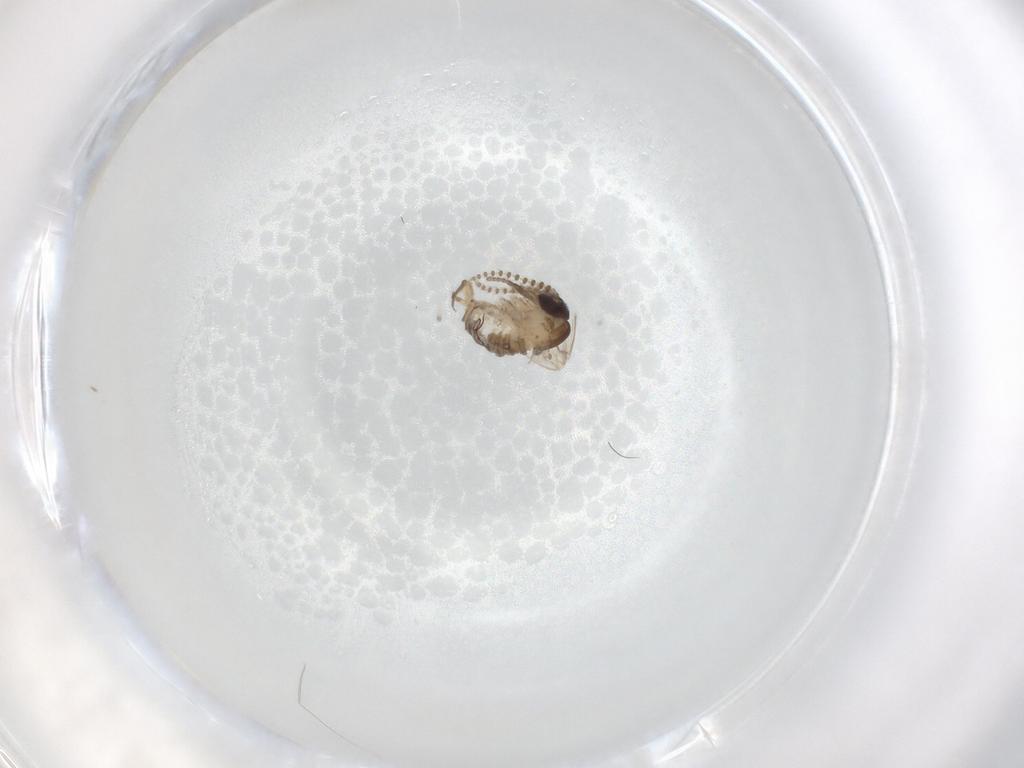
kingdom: Animalia
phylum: Arthropoda
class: Insecta
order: Diptera
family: Psychodidae
